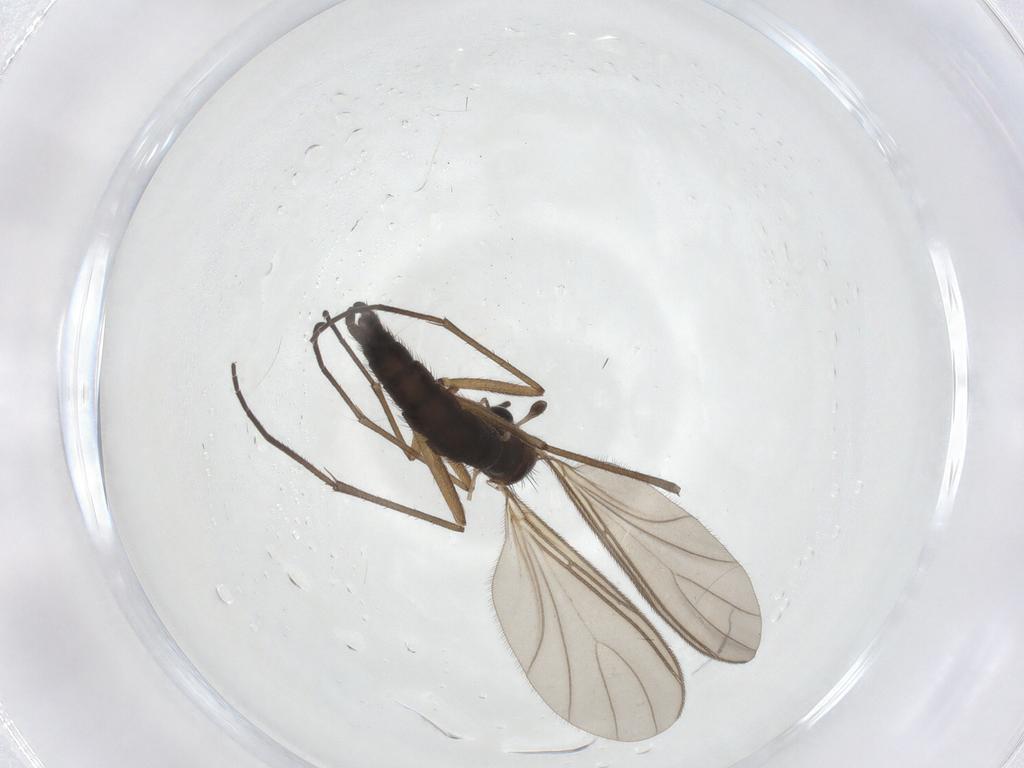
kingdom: Animalia
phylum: Arthropoda
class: Insecta
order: Diptera
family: Sciaridae
